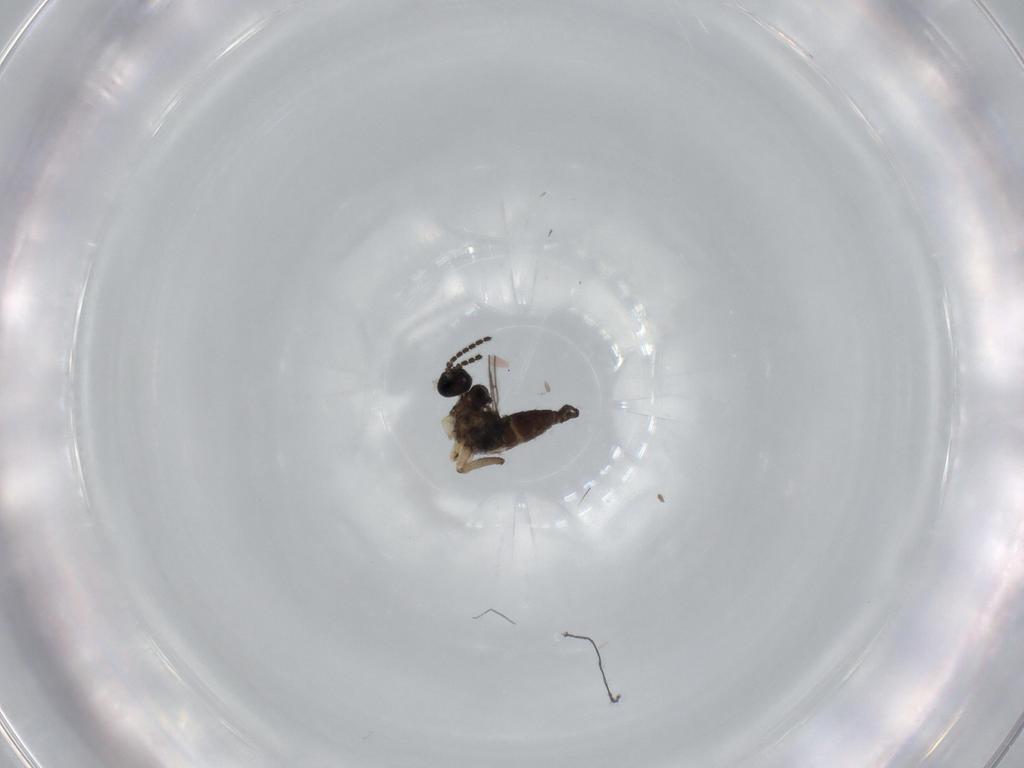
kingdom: Animalia
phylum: Arthropoda
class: Insecta
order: Diptera
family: Sciaridae
